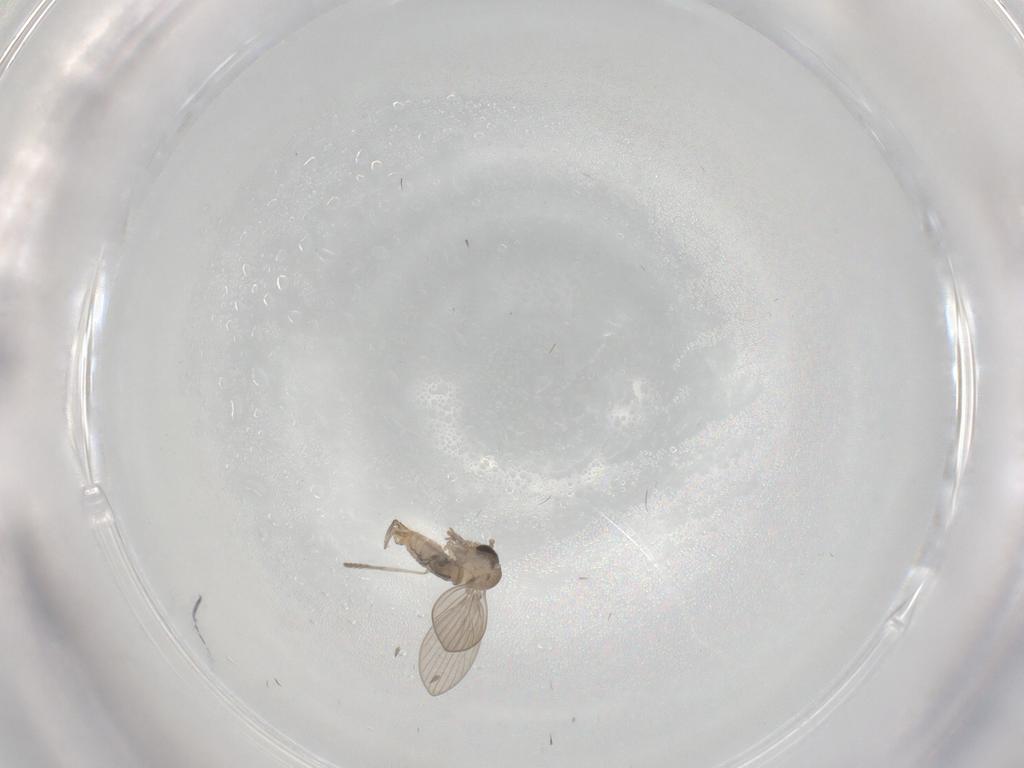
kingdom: Animalia
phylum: Arthropoda
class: Insecta
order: Diptera
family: Psychodidae
